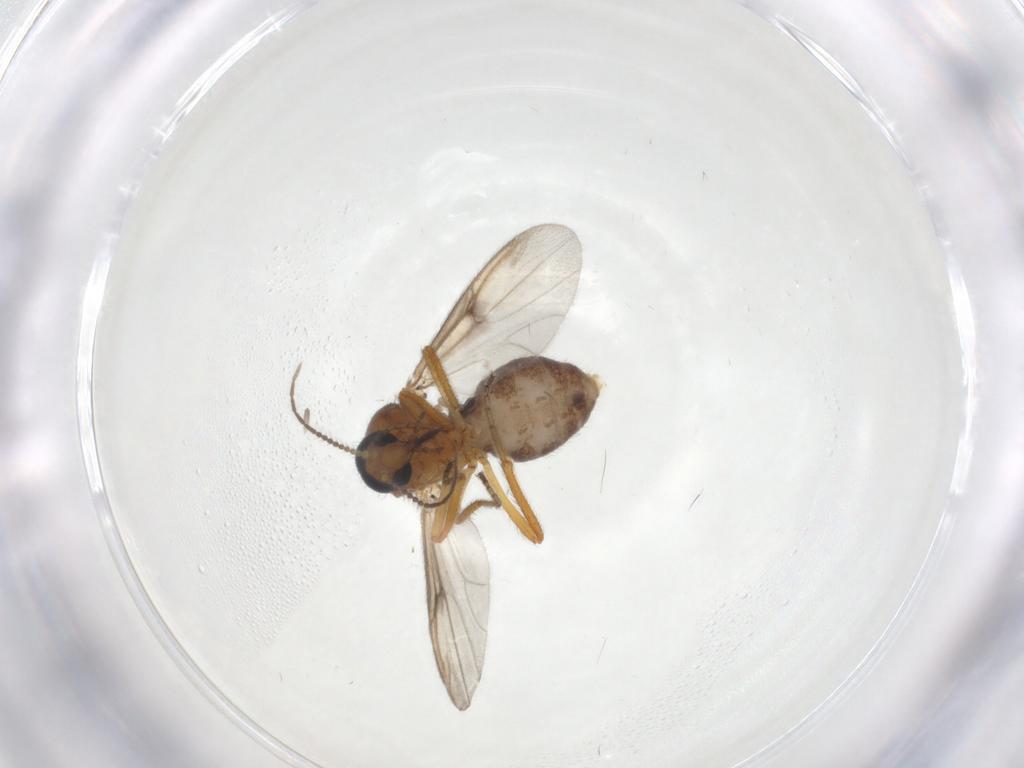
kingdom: Animalia
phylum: Arthropoda
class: Insecta
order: Diptera
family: Ceratopogonidae
